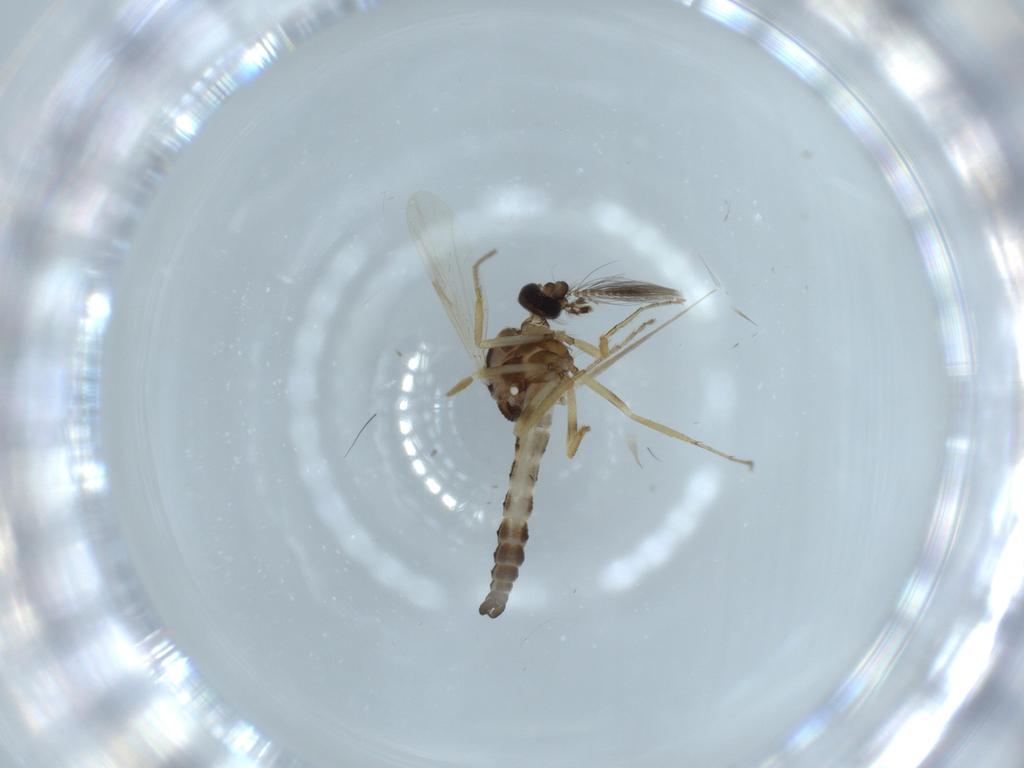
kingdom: Animalia
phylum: Arthropoda
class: Insecta
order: Diptera
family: Ceratopogonidae
